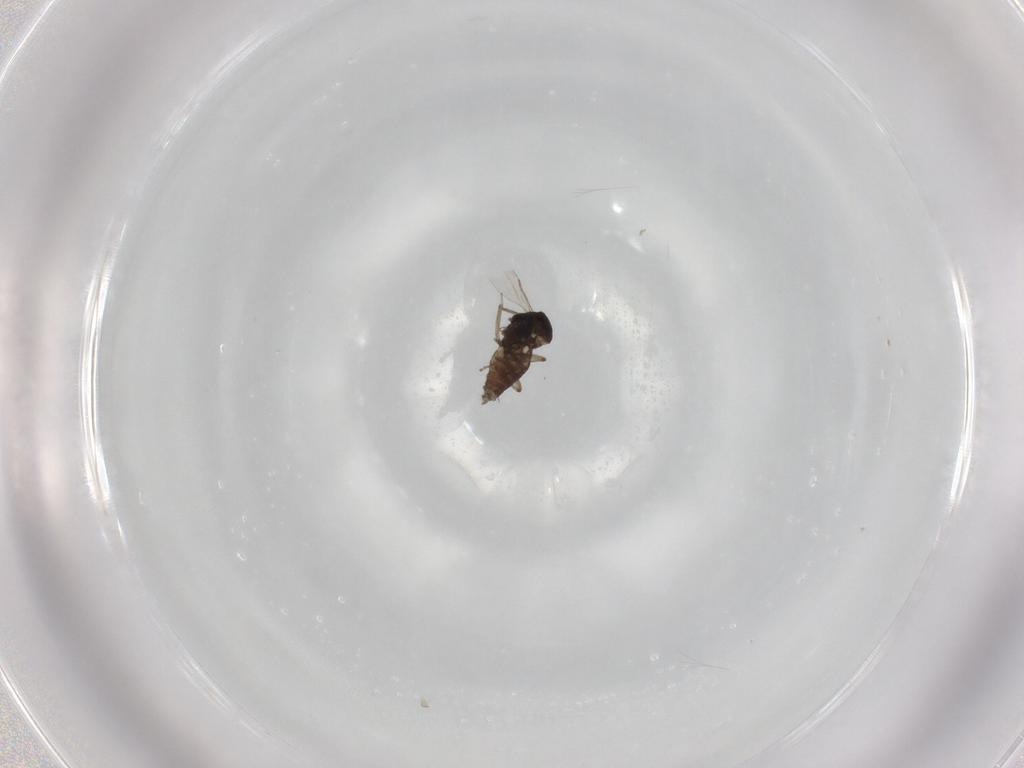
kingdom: Animalia
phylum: Arthropoda
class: Insecta
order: Diptera
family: Ceratopogonidae
